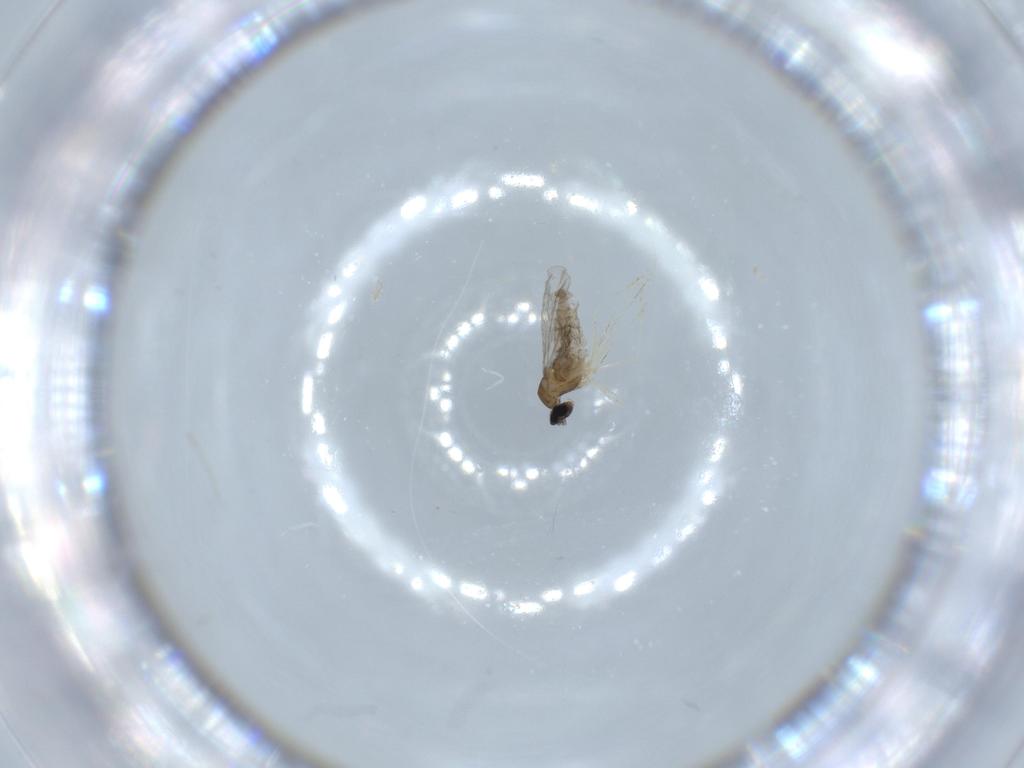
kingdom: Animalia
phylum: Arthropoda
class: Insecta
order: Diptera
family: Cecidomyiidae
